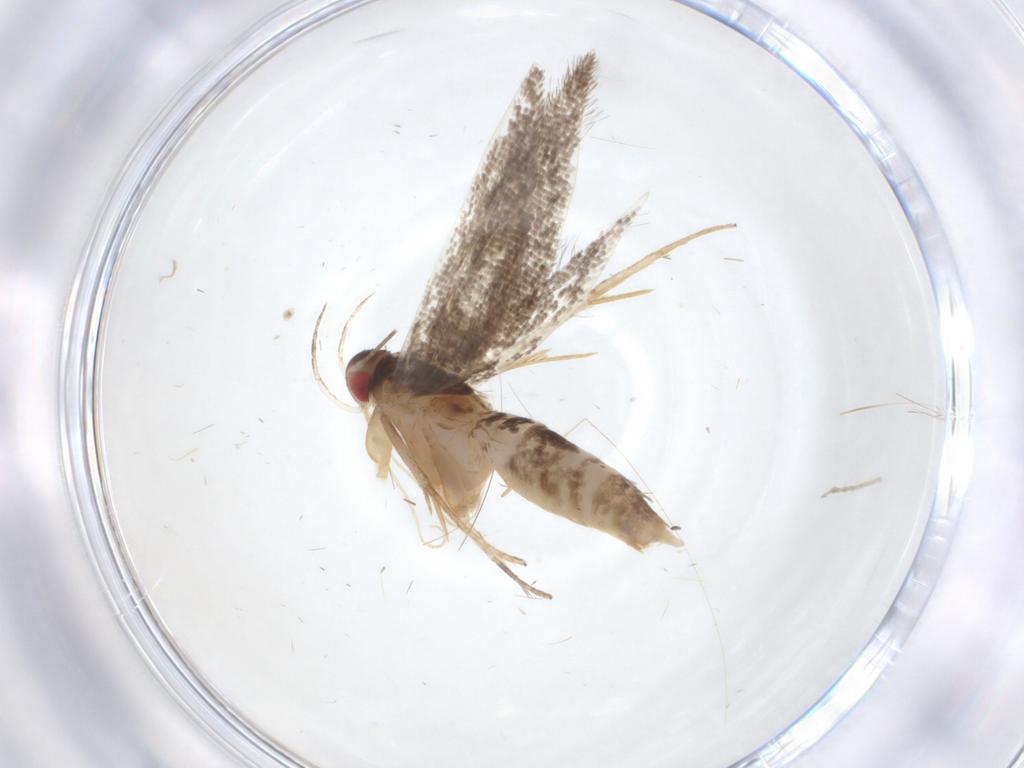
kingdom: Animalia
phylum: Arthropoda
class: Insecta
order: Lepidoptera
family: Cosmopterigidae
